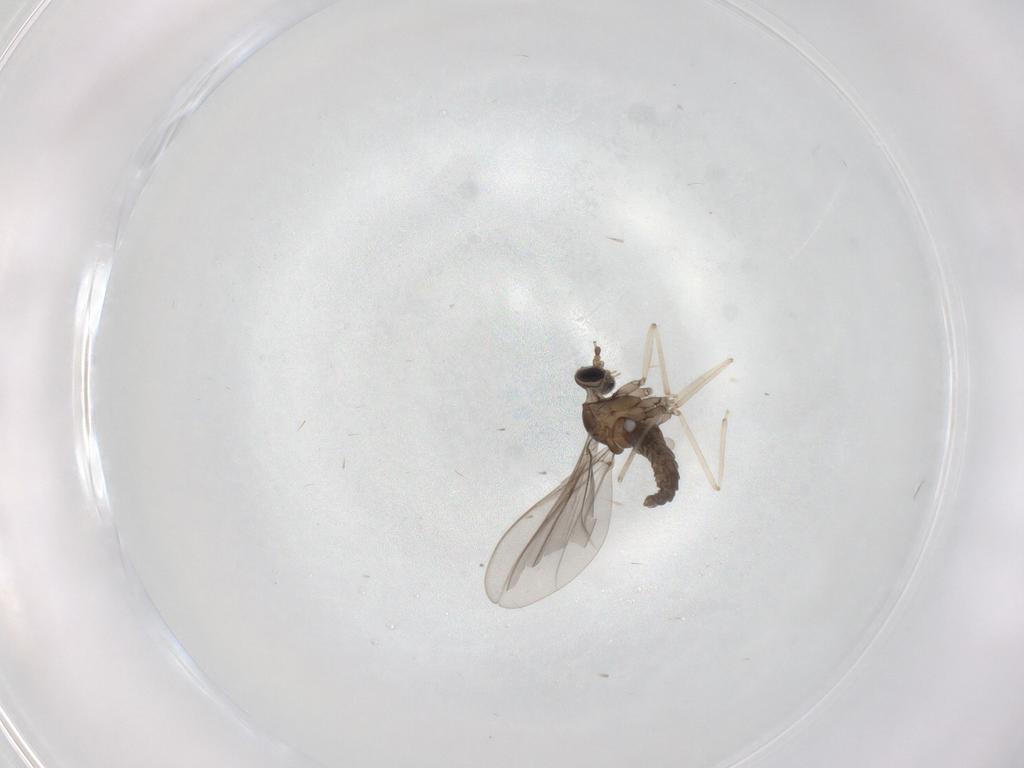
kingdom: Animalia
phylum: Arthropoda
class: Insecta
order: Diptera
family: Cecidomyiidae
